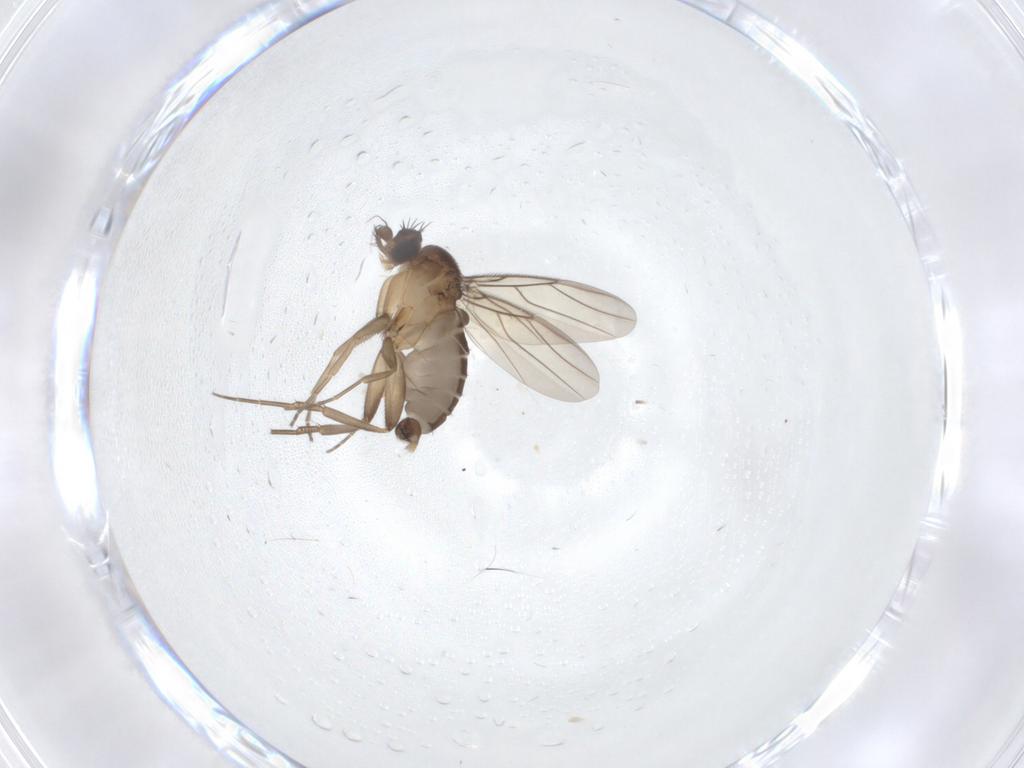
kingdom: Animalia
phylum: Arthropoda
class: Insecta
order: Diptera
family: Phoridae
